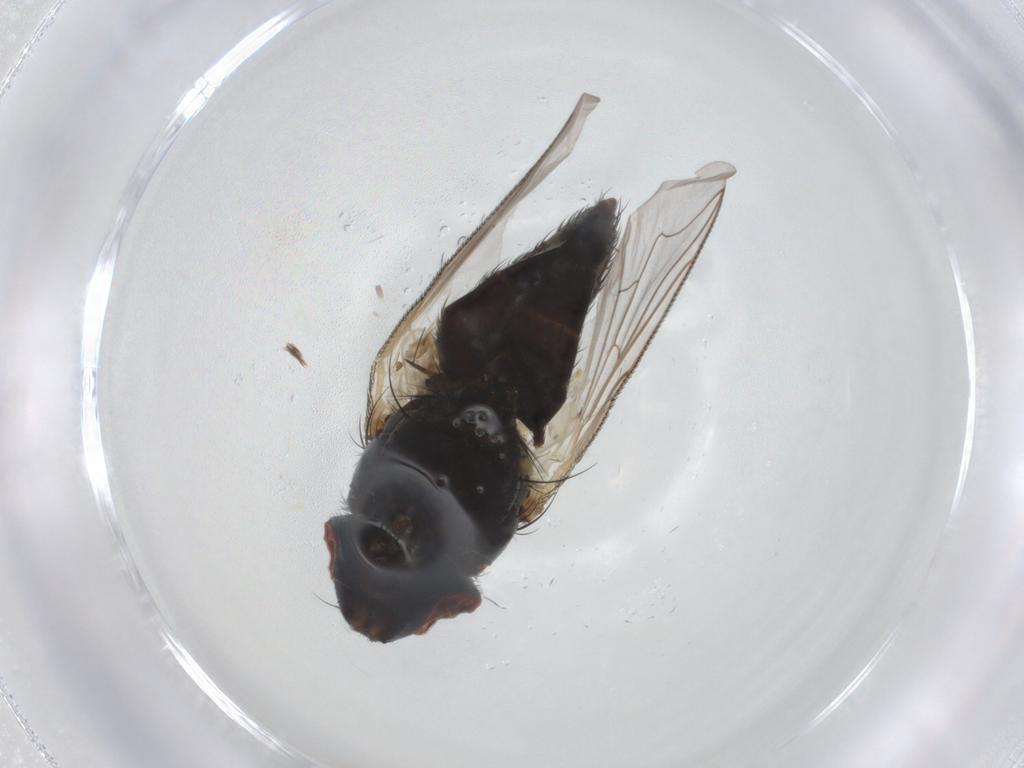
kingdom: Animalia
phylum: Arthropoda
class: Insecta
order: Diptera
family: Sarcophagidae
